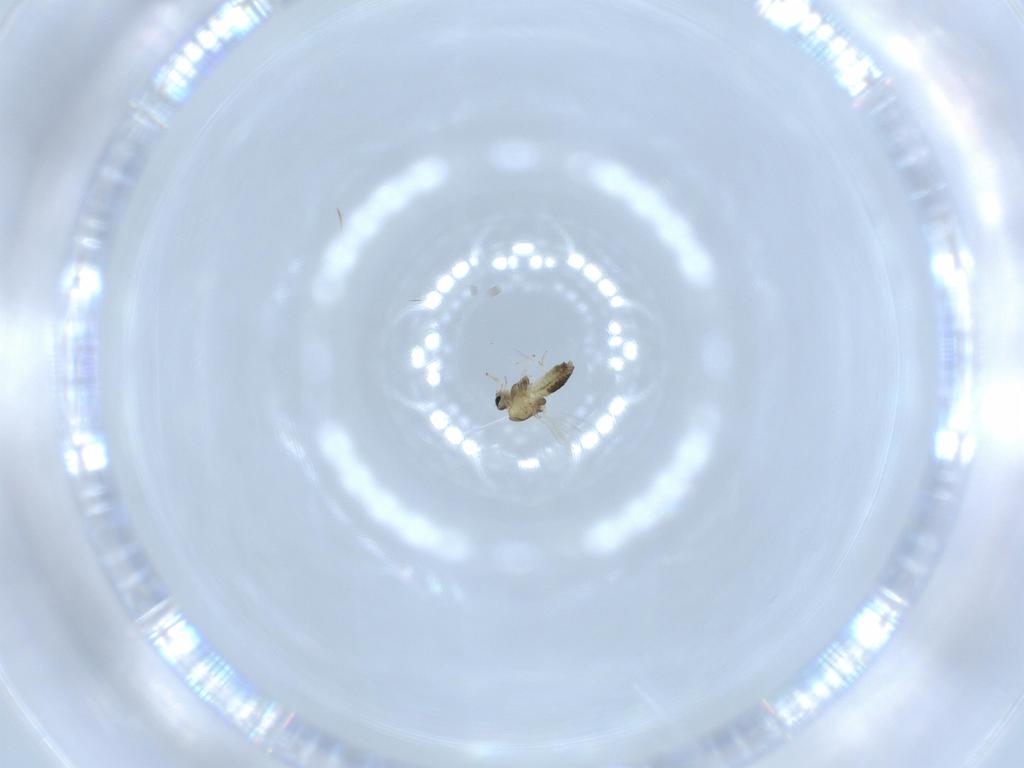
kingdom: Animalia
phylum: Arthropoda
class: Insecta
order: Diptera
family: Chironomidae
